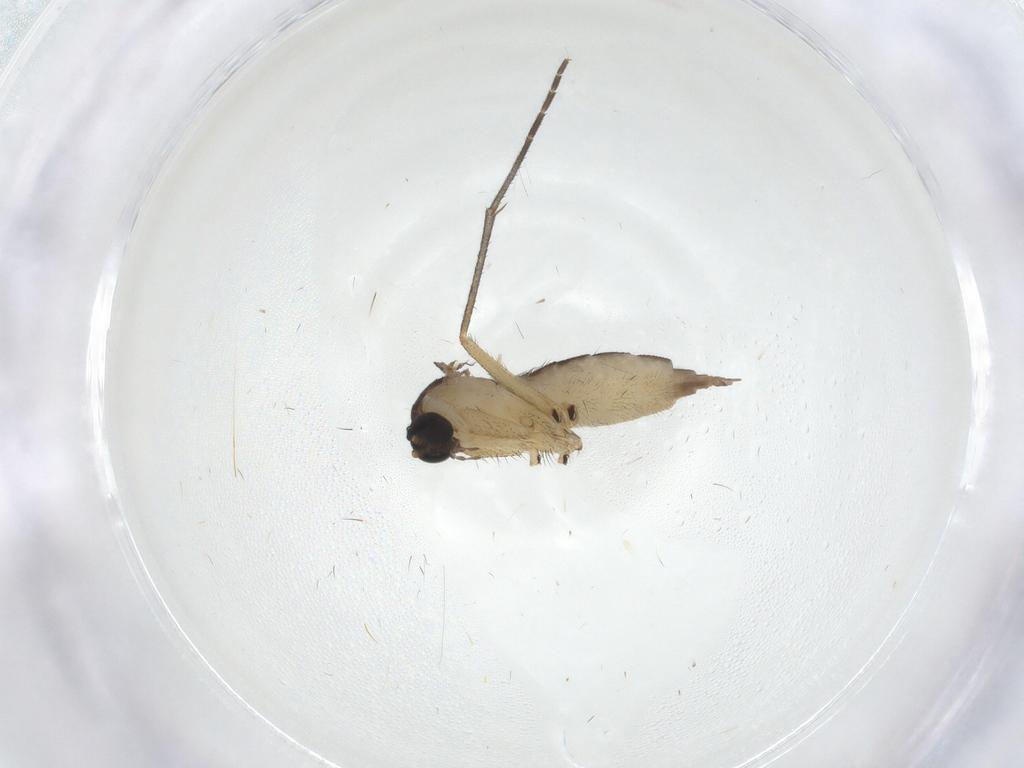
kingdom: Animalia
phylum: Arthropoda
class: Insecta
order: Diptera
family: Sciaridae
